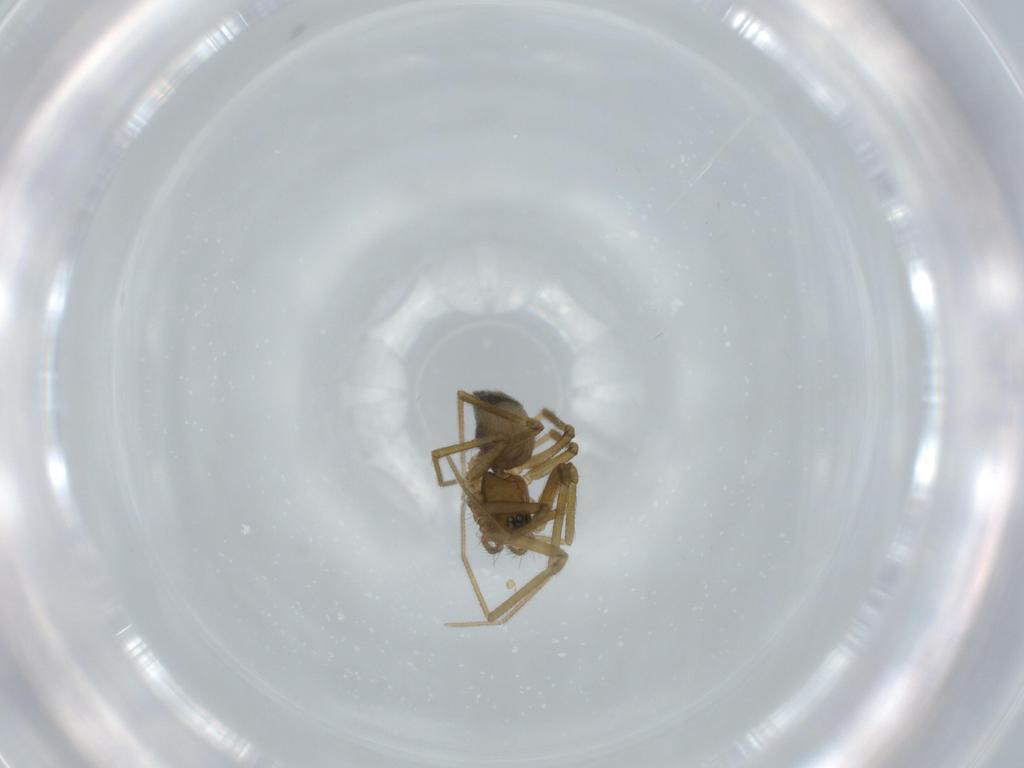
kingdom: Animalia
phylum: Arthropoda
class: Arachnida
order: Araneae
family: Linyphiidae
